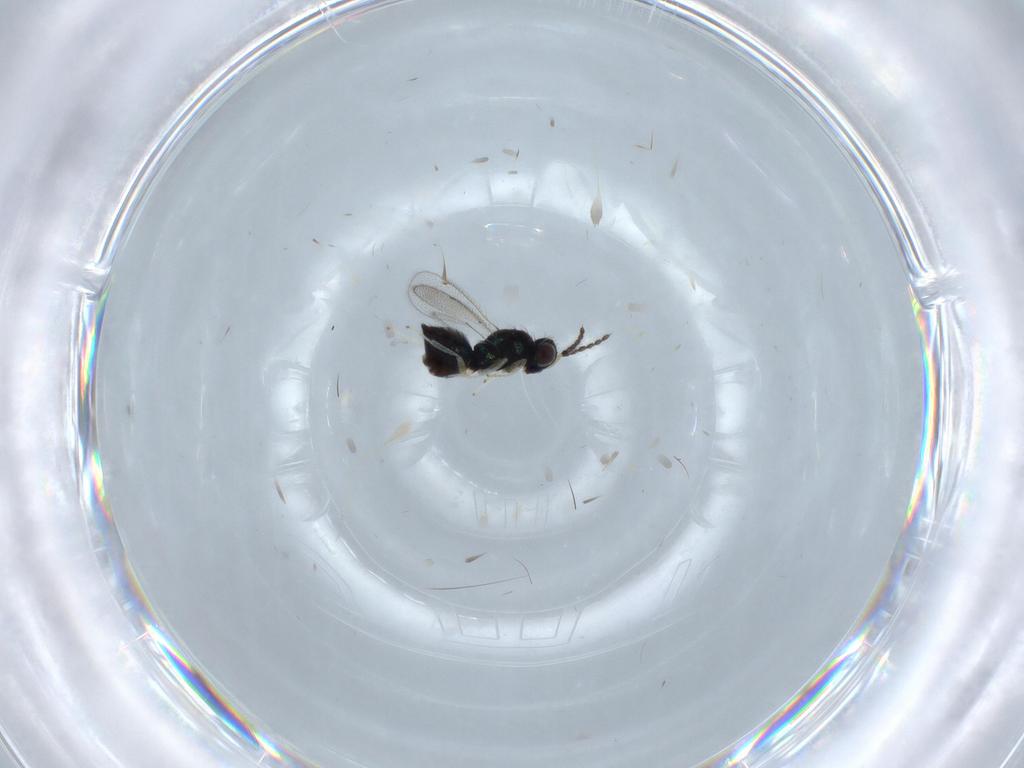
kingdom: Animalia
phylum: Arthropoda
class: Insecta
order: Hymenoptera
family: Eulophidae
